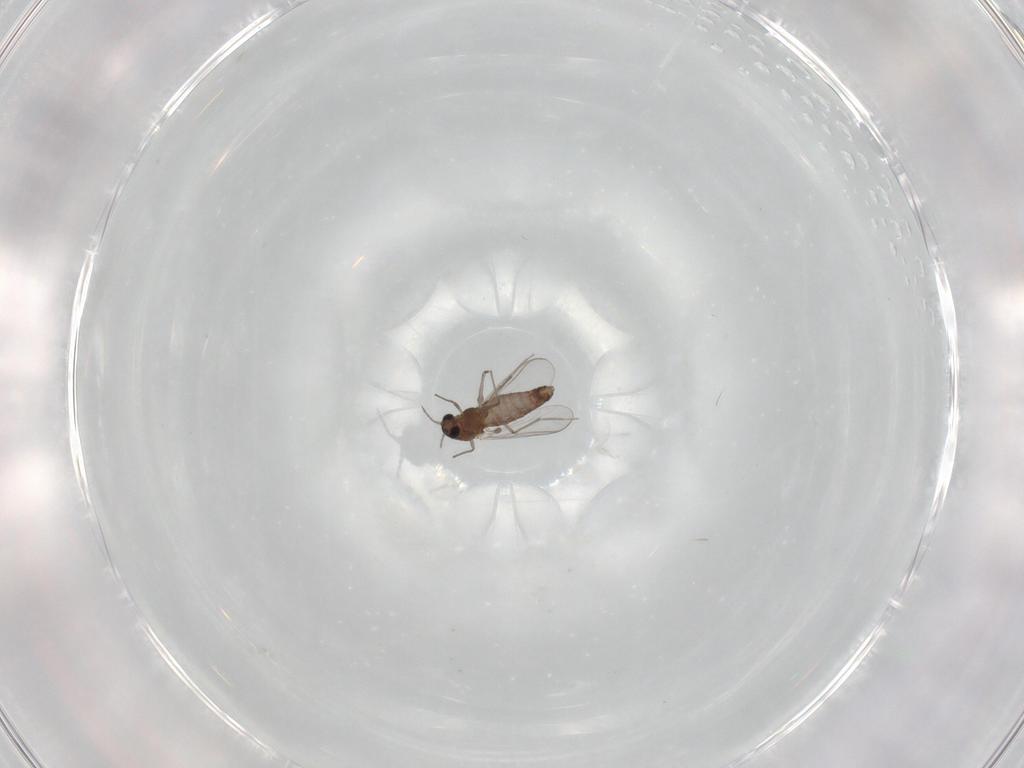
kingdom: Animalia
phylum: Arthropoda
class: Insecta
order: Diptera
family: Chironomidae
